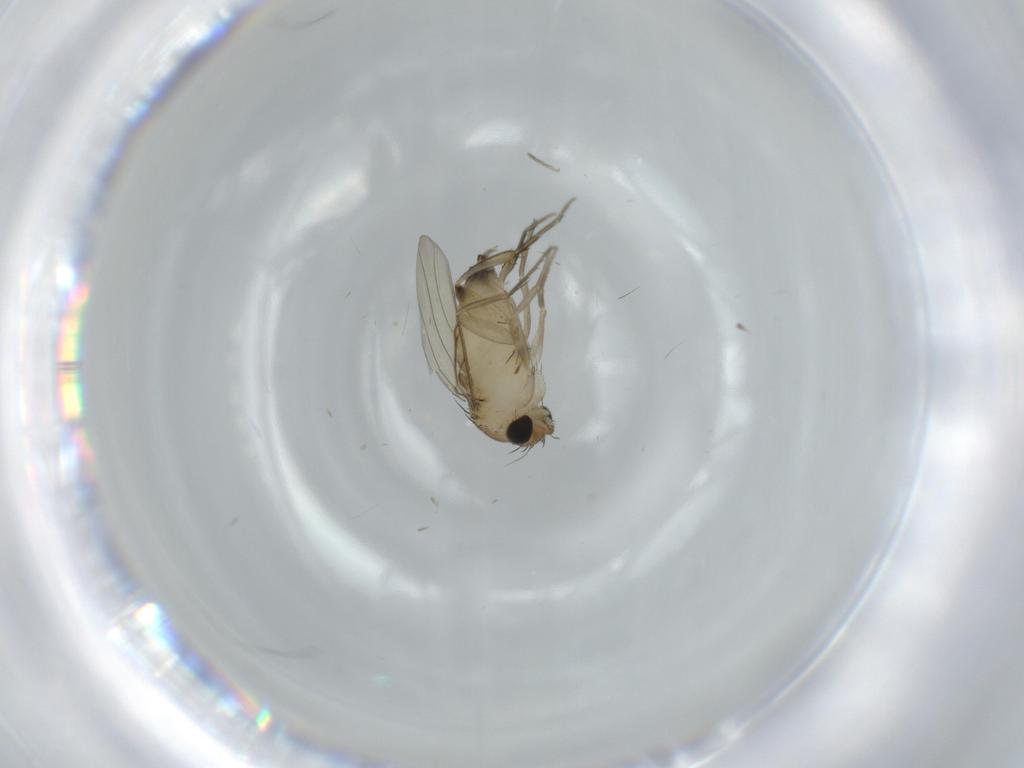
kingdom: Animalia
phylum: Arthropoda
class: Insecta
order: Diptera
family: Phoridae
